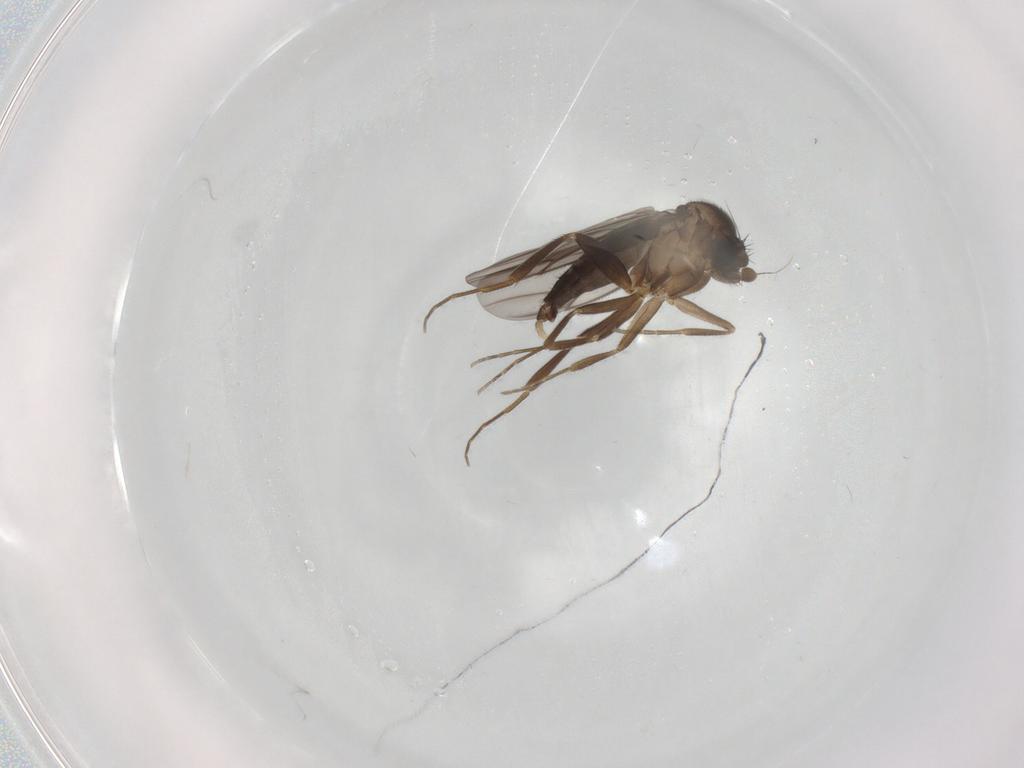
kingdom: Animalia
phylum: Arthropoda
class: Insecta
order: Diptera
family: Phoridae
